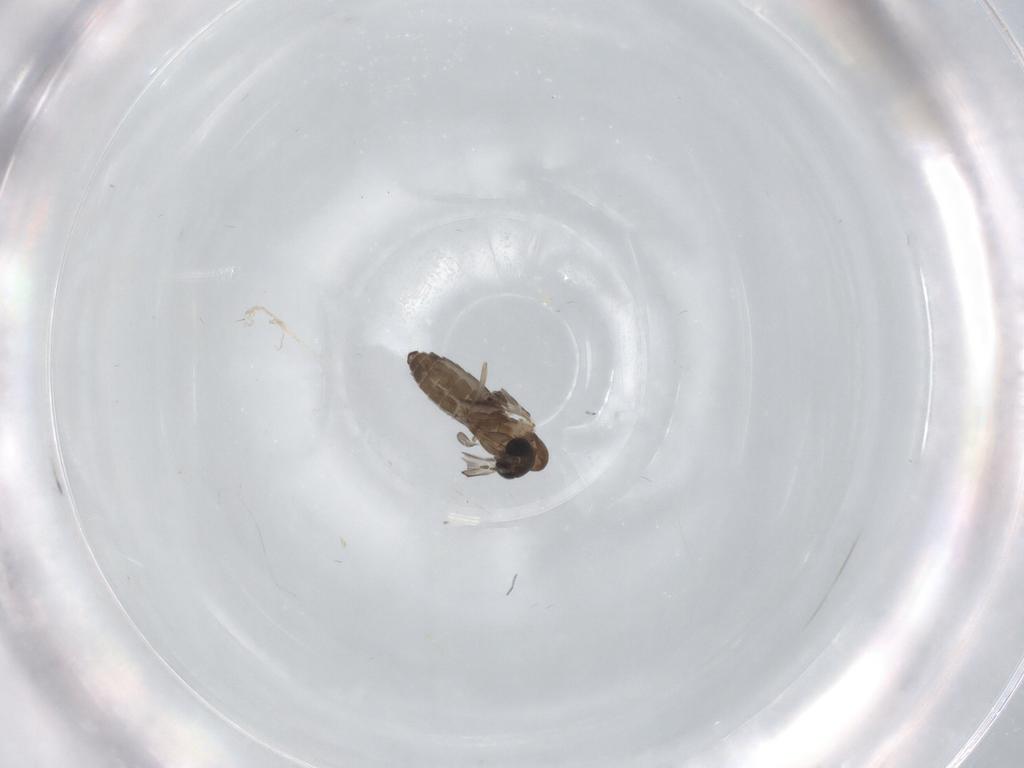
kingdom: Animalia
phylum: Arthropoda
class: Insecta
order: Diptera
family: Psychodidae
